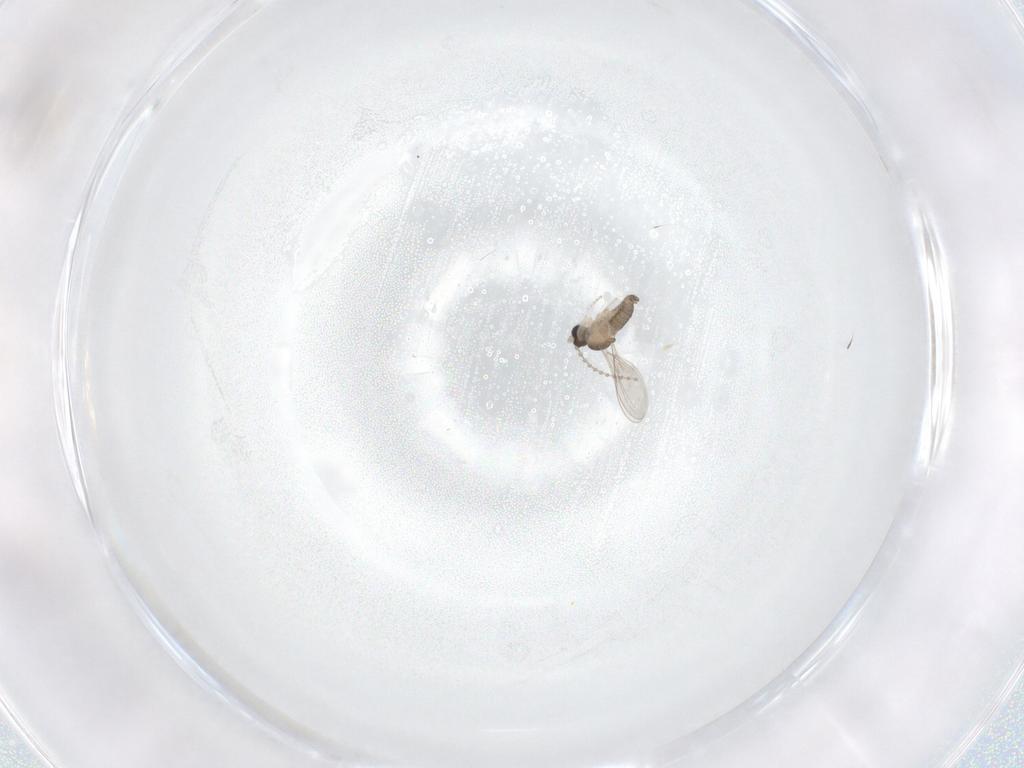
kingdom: Animalia
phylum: Arthropoda
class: Insecta
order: Diptera
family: Cecidomyiidae
